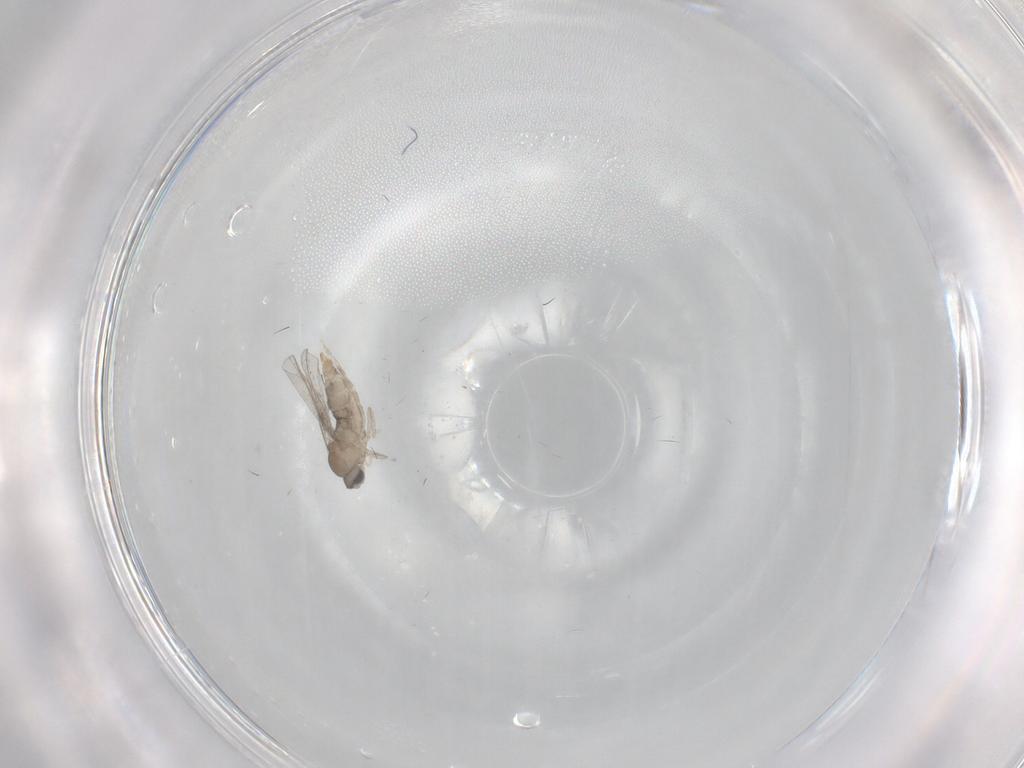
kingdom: Animalia
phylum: Arthropoda
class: Insecta
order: Diptera
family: Cecidomyiidae
